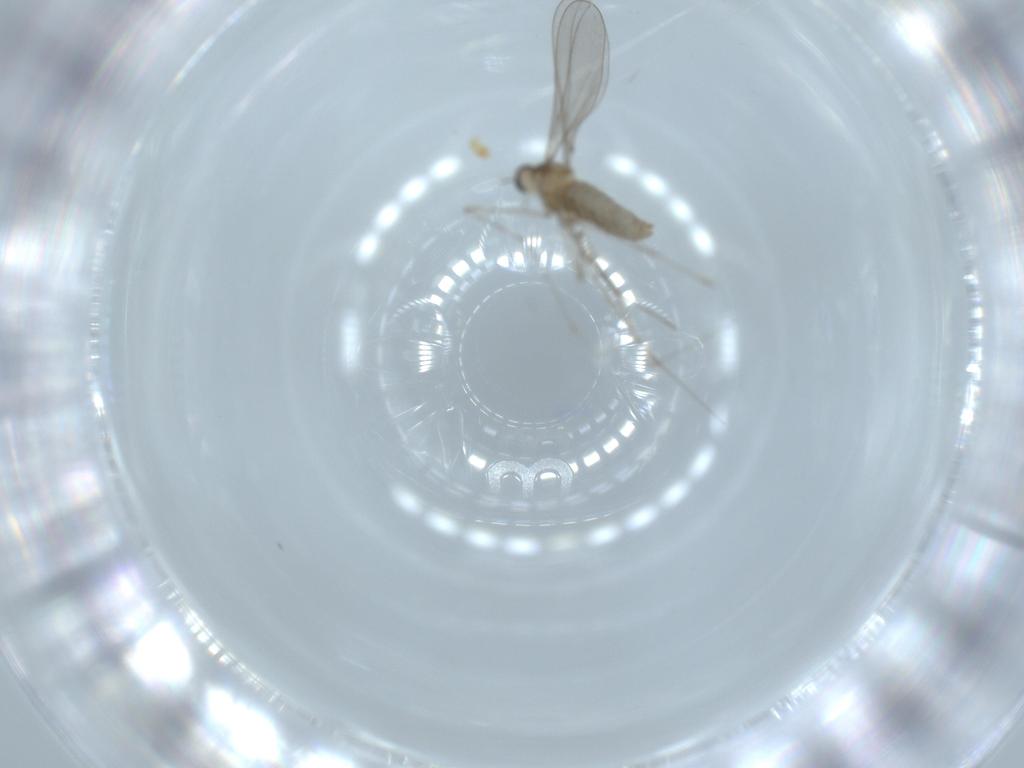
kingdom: Animalia
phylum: Arthropoda
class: Insecta
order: Diptera
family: Cecidomyiidae
